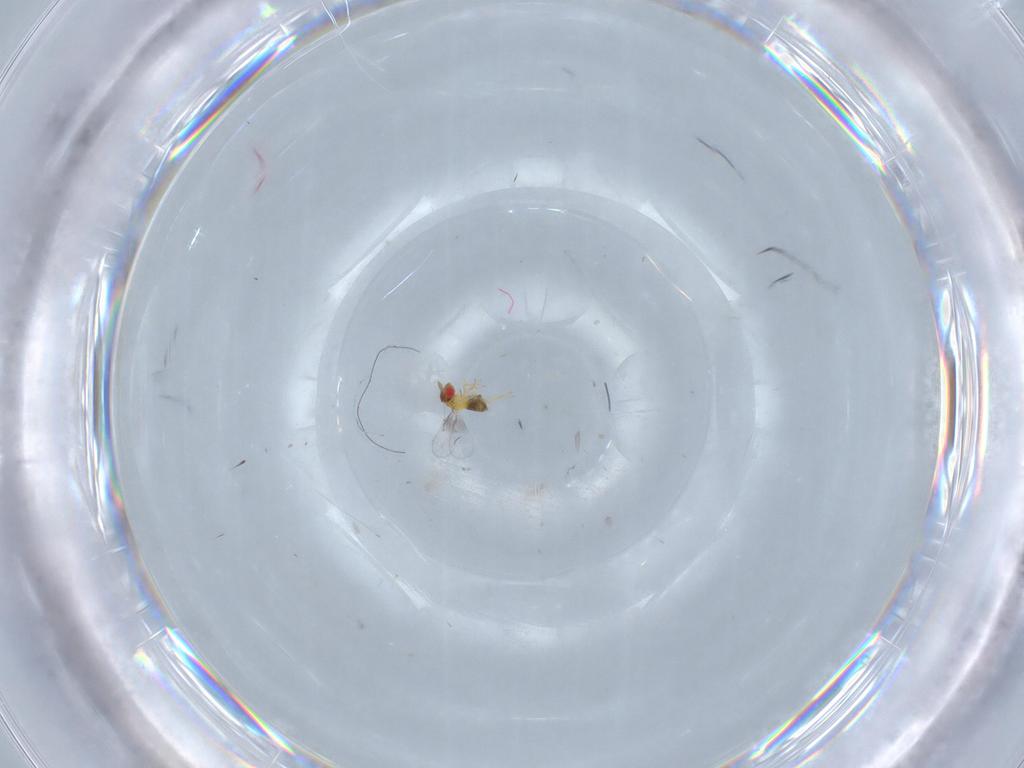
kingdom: Animalia
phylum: Arthropoda
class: Insecta
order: Hymenoptera
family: Trichogrammatidae
